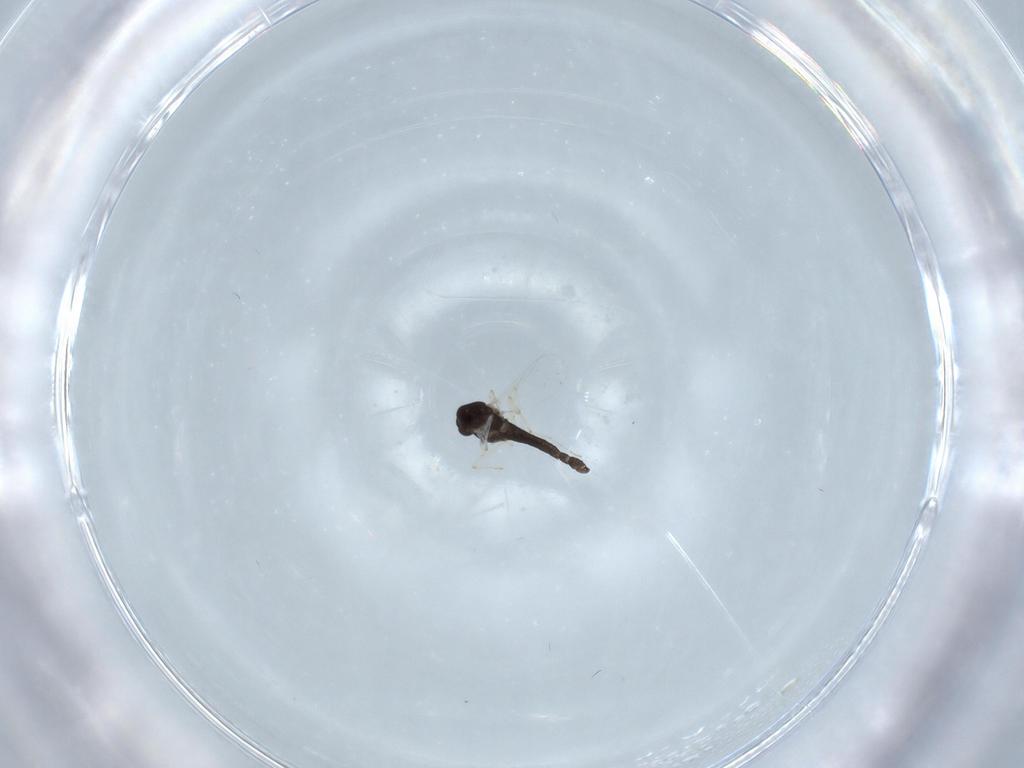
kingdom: Animalia
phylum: Arthropoda
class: Insecta
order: Diptera
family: Chironomidae
